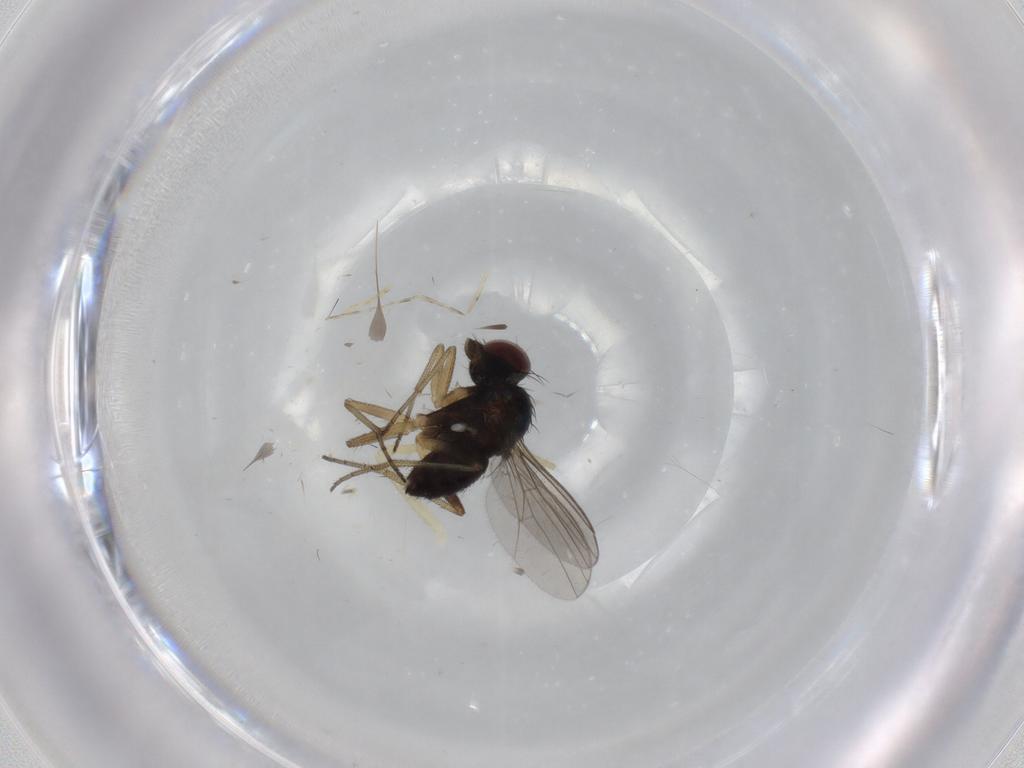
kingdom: Animalia
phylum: Arthropoda
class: Insecta
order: Diptera
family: Dolichopodidae
